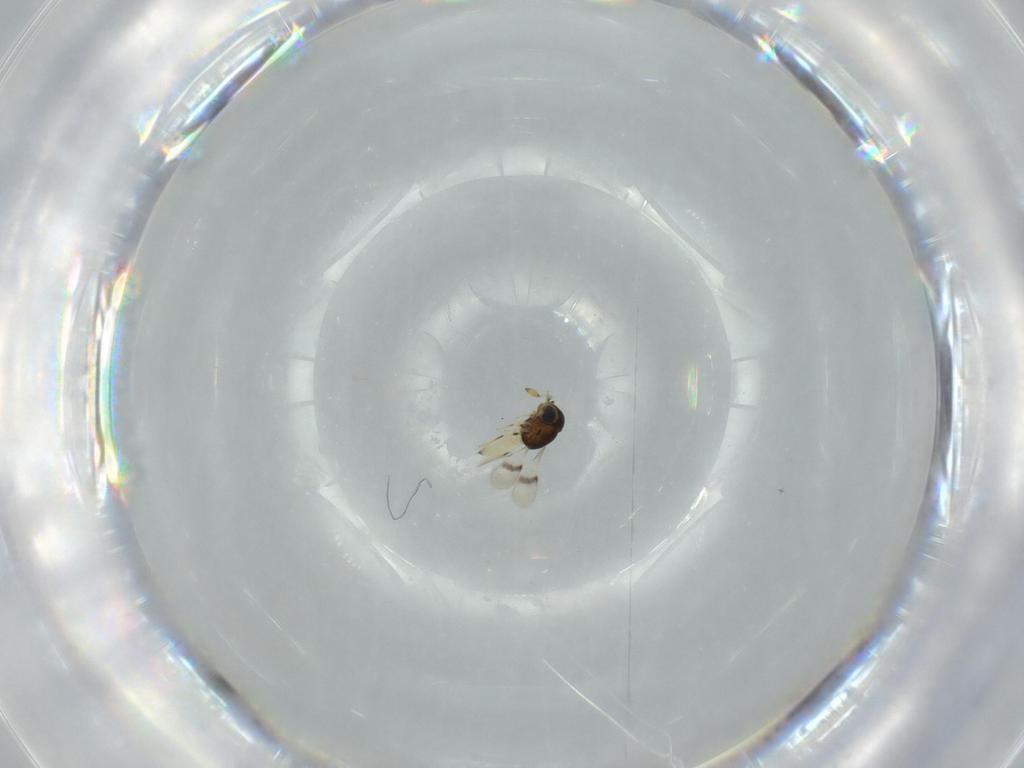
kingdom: Animalia
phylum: Arthropoda
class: Insecta
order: Hymenoptera
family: Scelionidae
